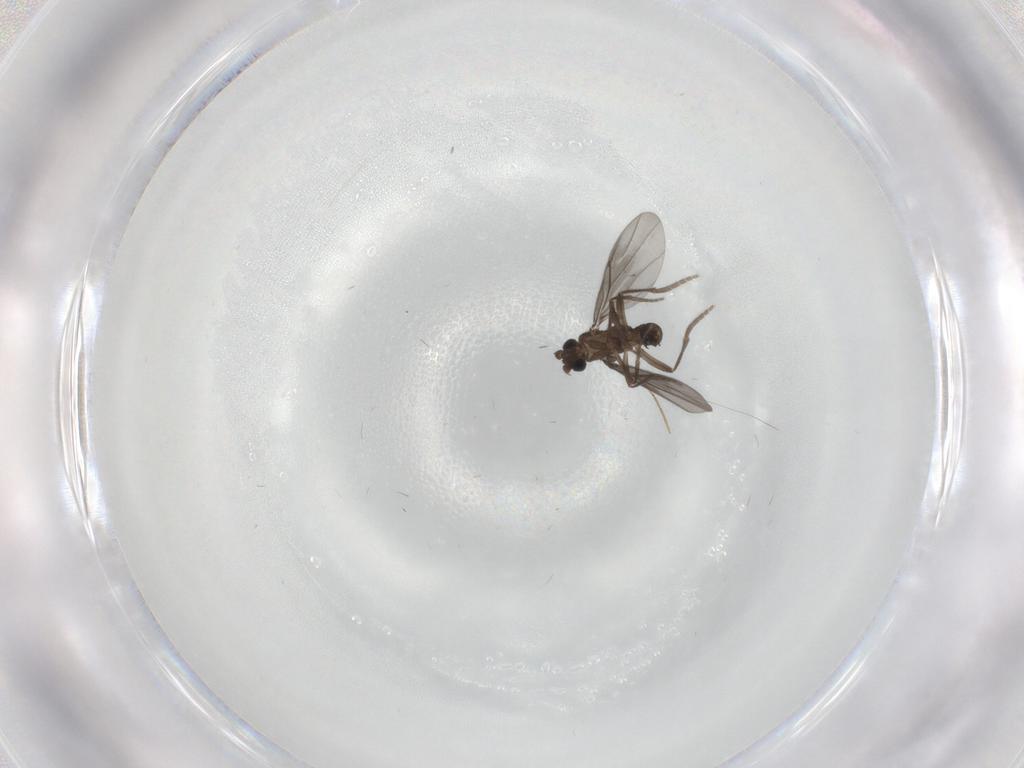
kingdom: Animalia
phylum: Arthropoda
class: Insecta
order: Diptera
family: Phoridae
